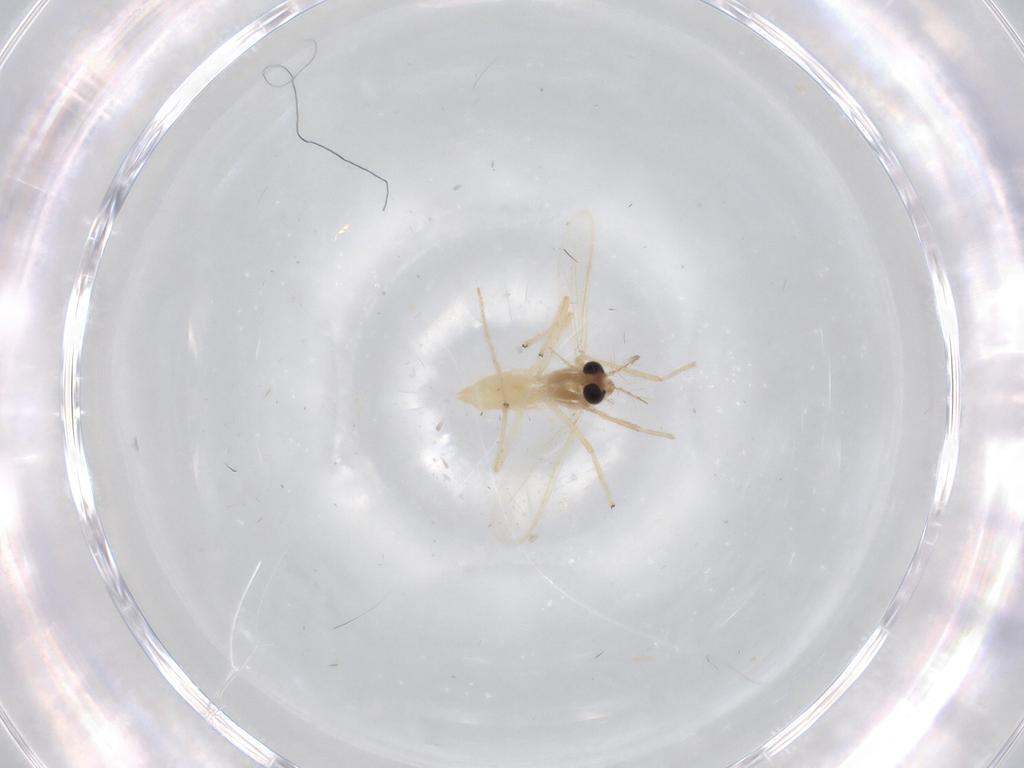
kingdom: Animalia
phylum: Arthropoda
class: Insecta
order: Diptera
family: Chironomidae
